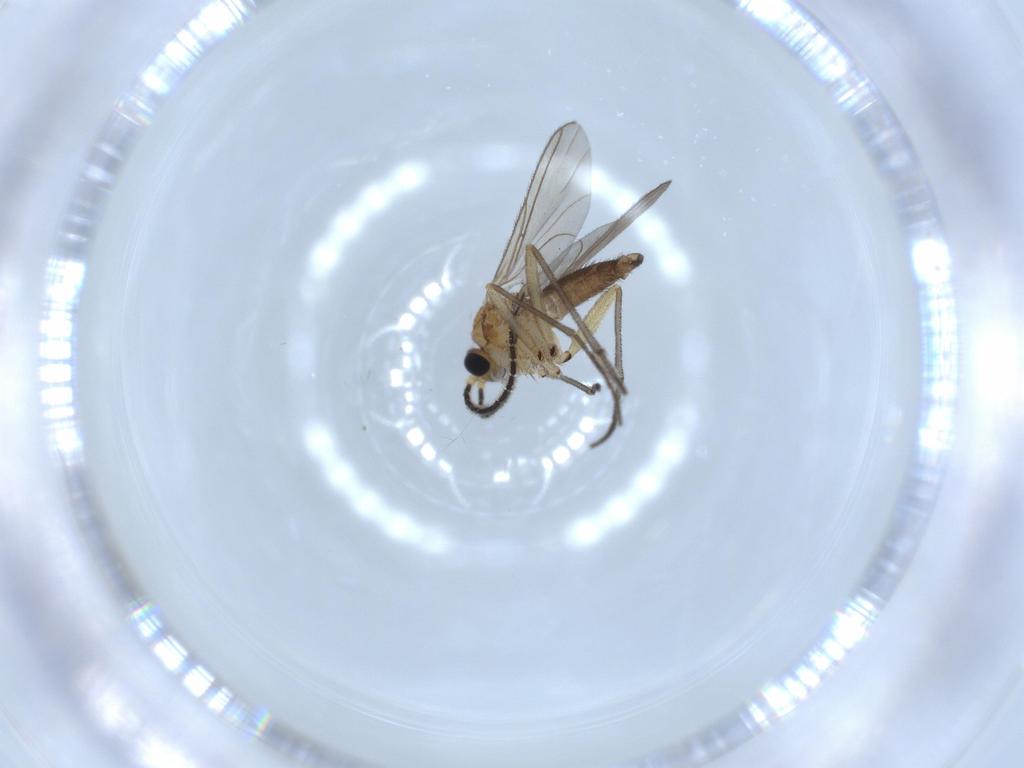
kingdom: Animalia
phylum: Arthropoda
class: Insecta
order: Diptera
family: Sciaridae
